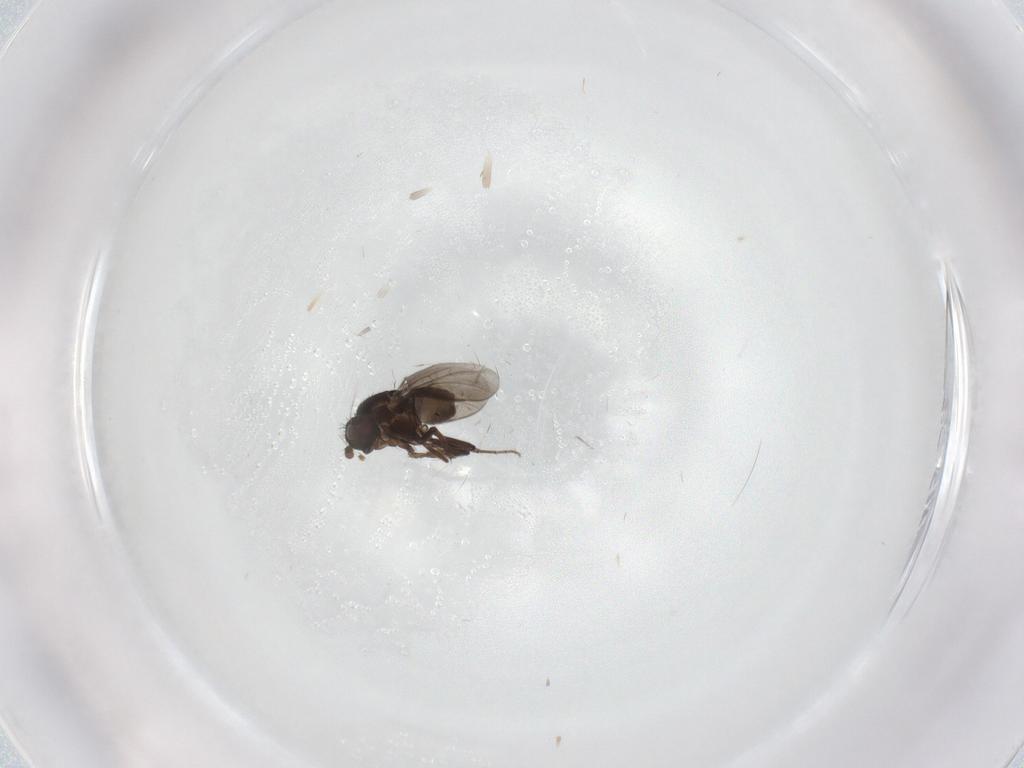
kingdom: Animalia
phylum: Arthropoda
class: Insecta
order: Diptera
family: Sphaeroceridae
